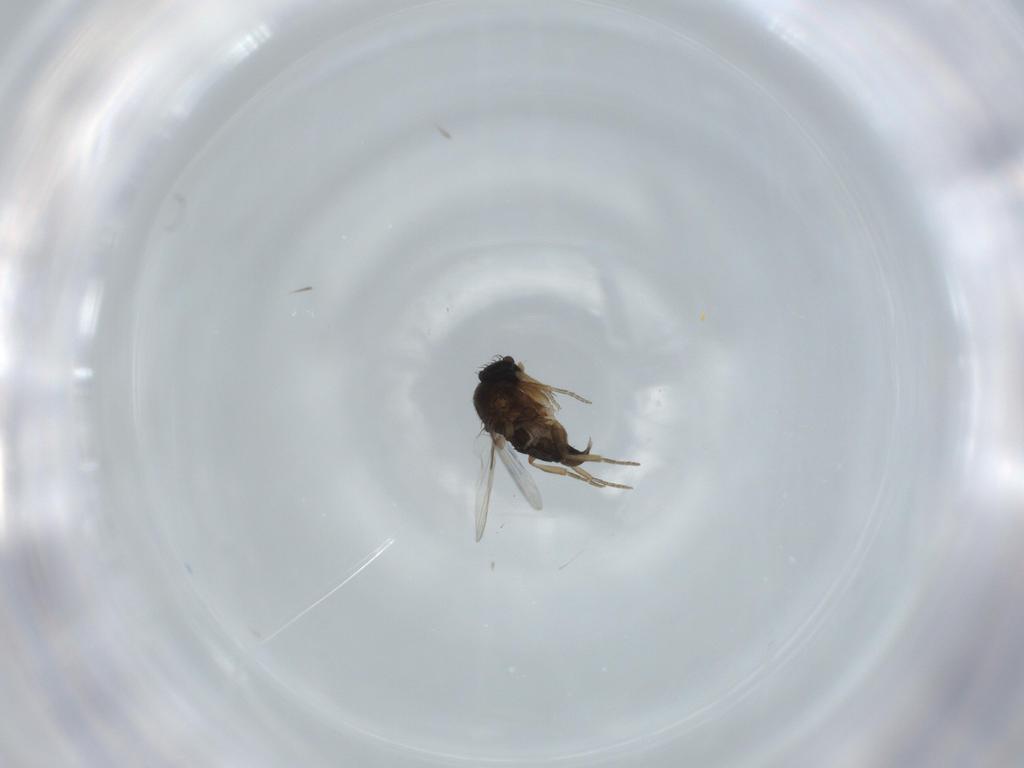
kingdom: Animalia
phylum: Arthropoda
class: Insecta
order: Diptera
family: Phoridae
